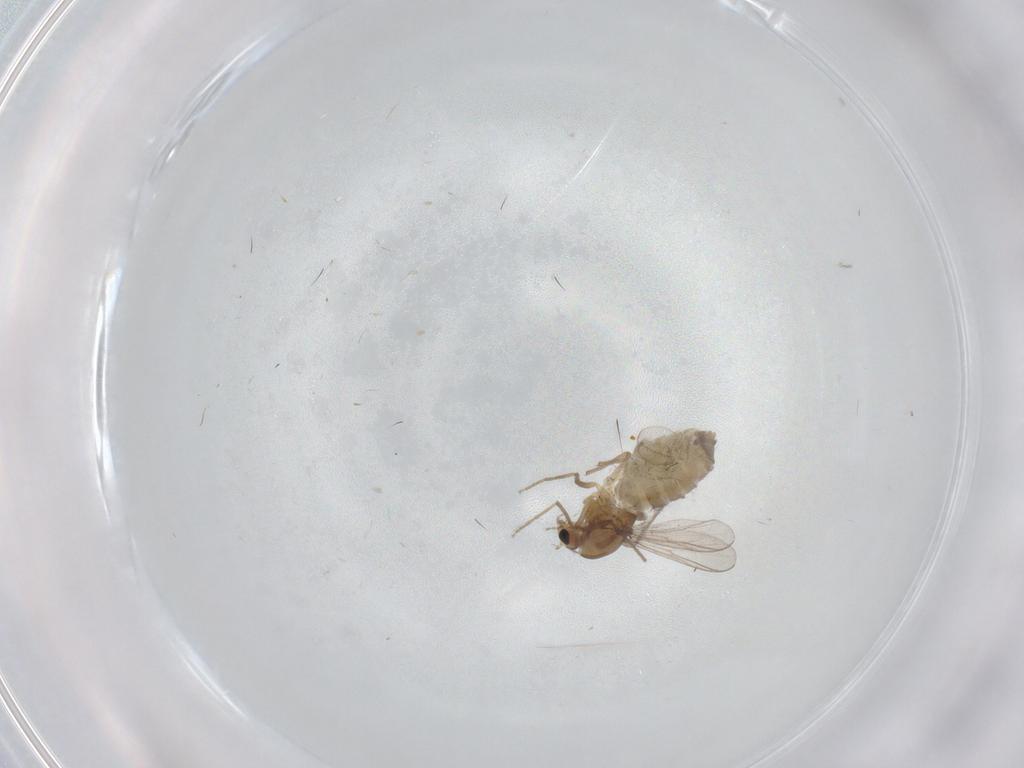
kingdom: Animalia
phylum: Arthropoda
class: Insecta
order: Diptera
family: Chironomidae
